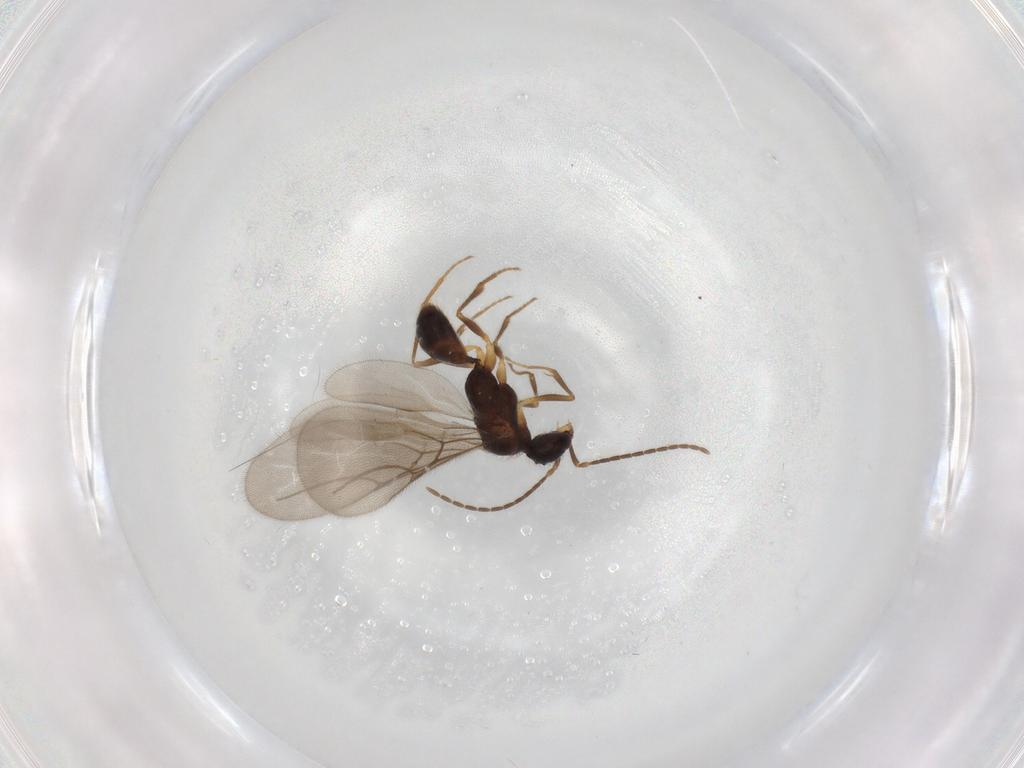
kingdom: Animalia
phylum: Arthropoda
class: Insecta
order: Hymenoptera
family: Bethylidae
